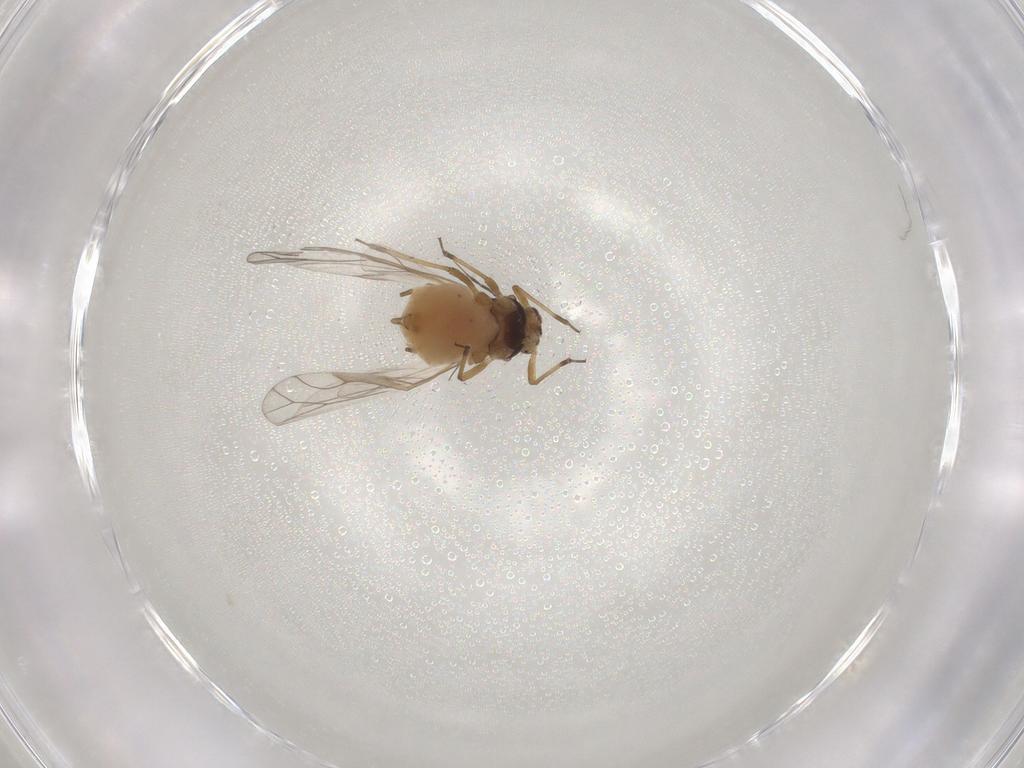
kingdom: Animalia
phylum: Arthropoda
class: Insecta
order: Hemiptera
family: Aphididae
